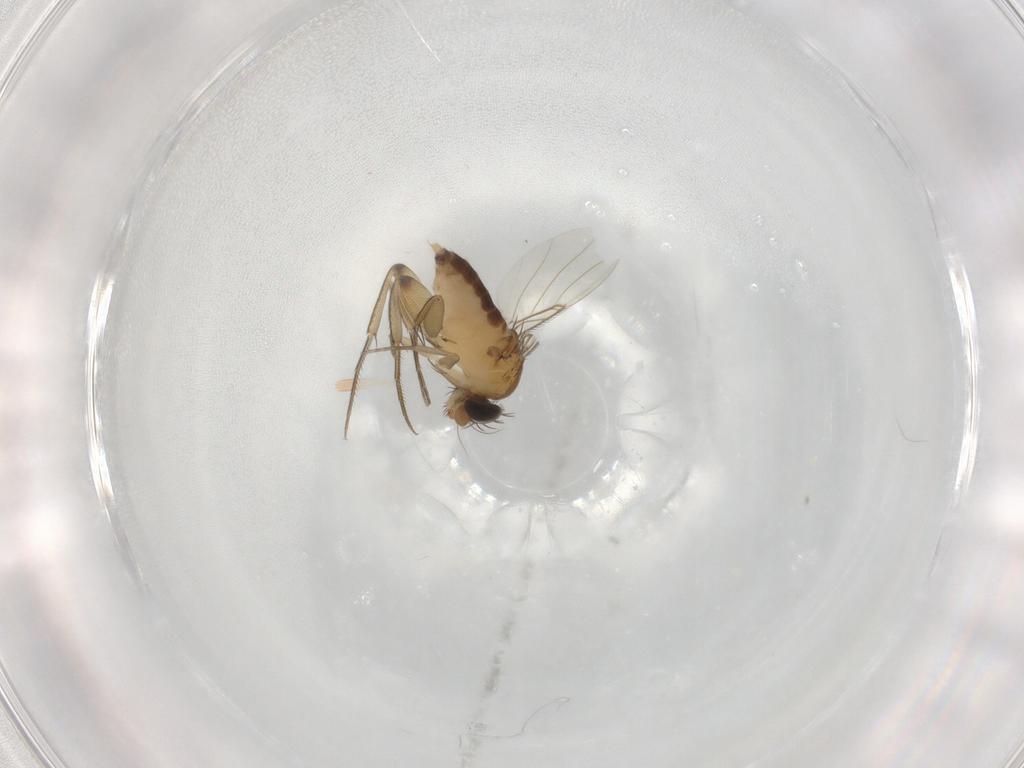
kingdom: Animalia
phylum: Arthropoda
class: Insecta
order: Diptera
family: Phoridae
